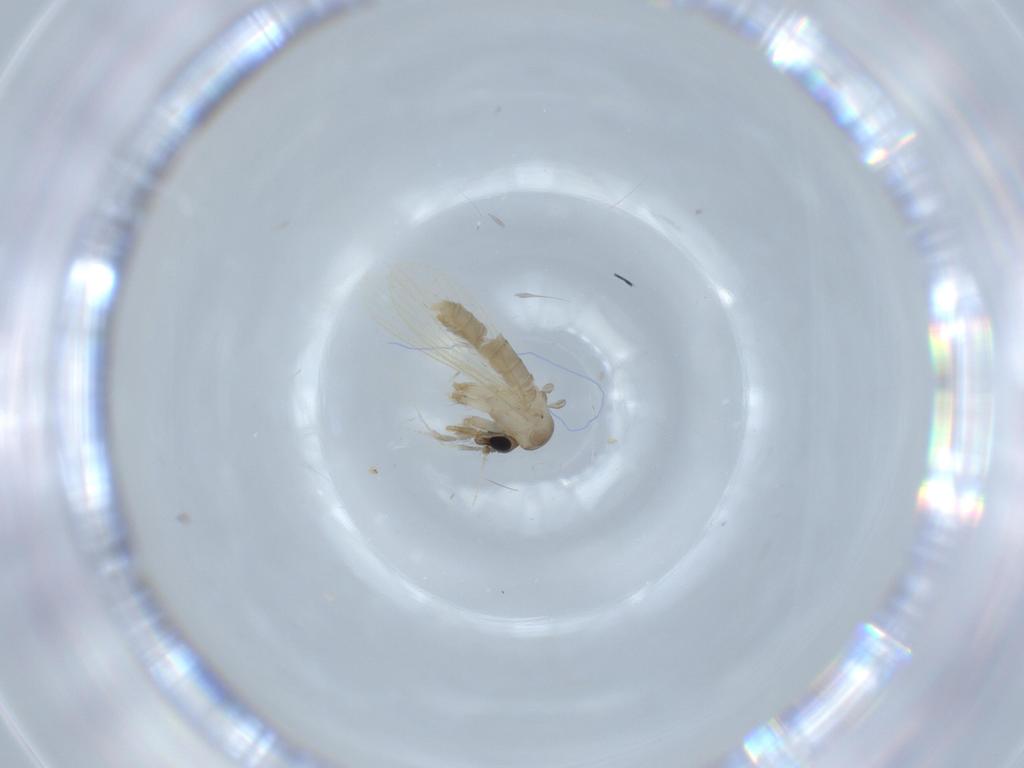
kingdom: Animalia
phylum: Arthropoda
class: Insecta
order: Diptera
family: Psychodidae
